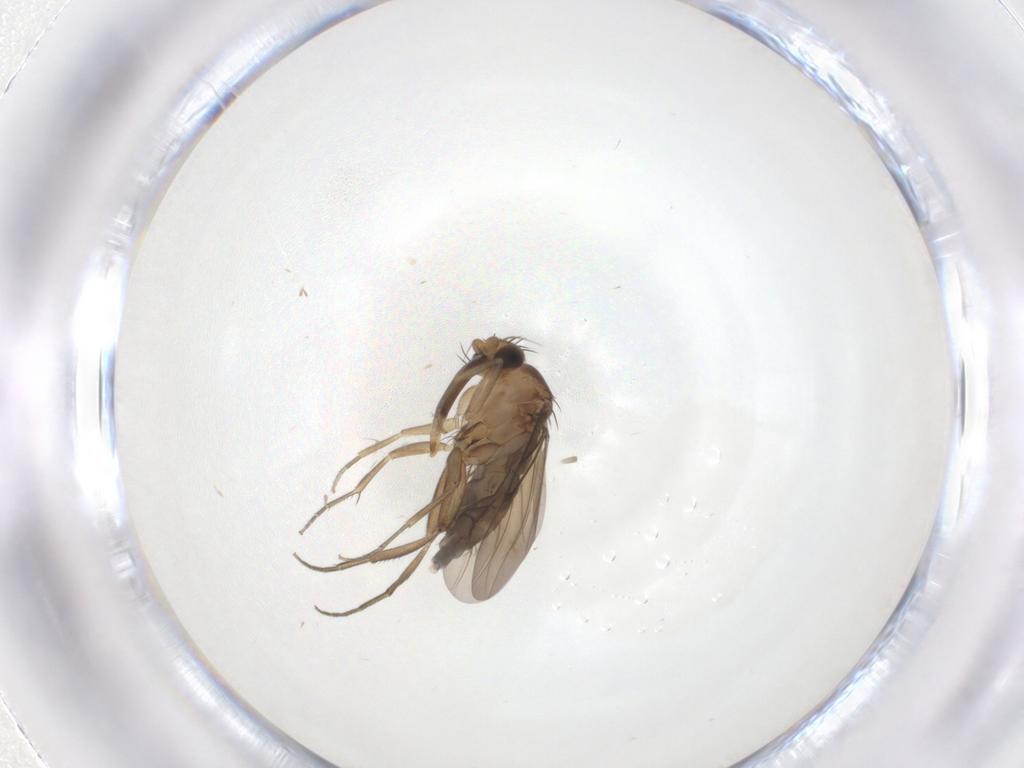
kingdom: Animalia
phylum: Arthropoda
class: Insecta
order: Diptera
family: Phoridae
